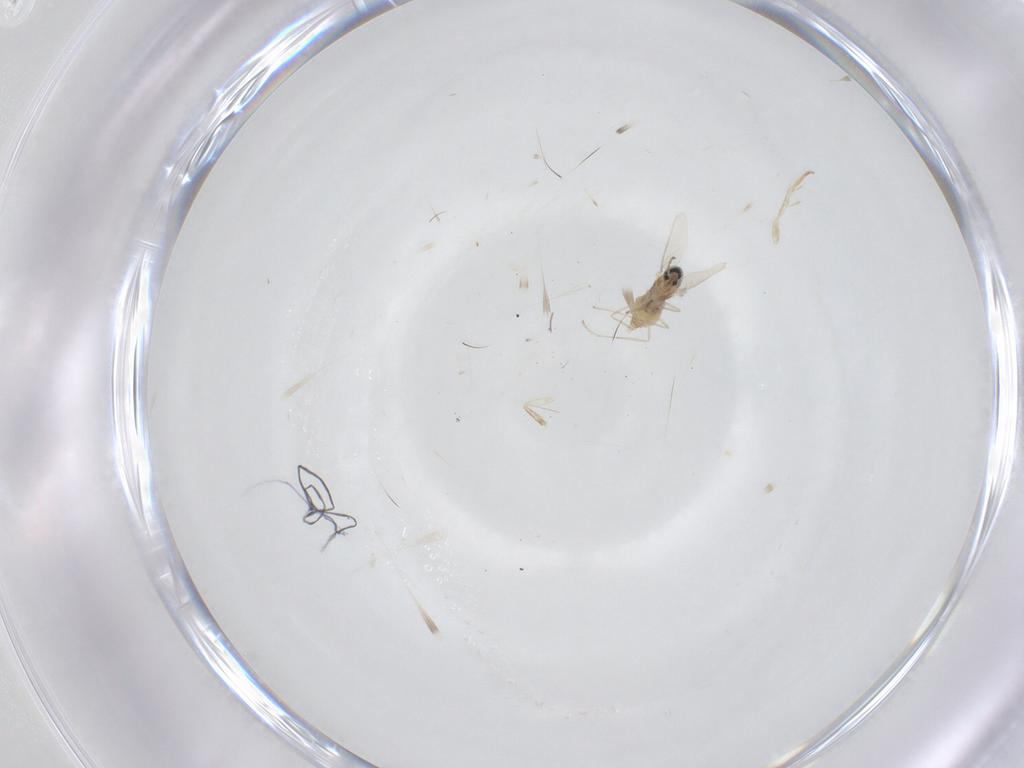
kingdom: Animalia
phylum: Arthropoda
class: Insecta
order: Diptera
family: Cecidomyiidae
